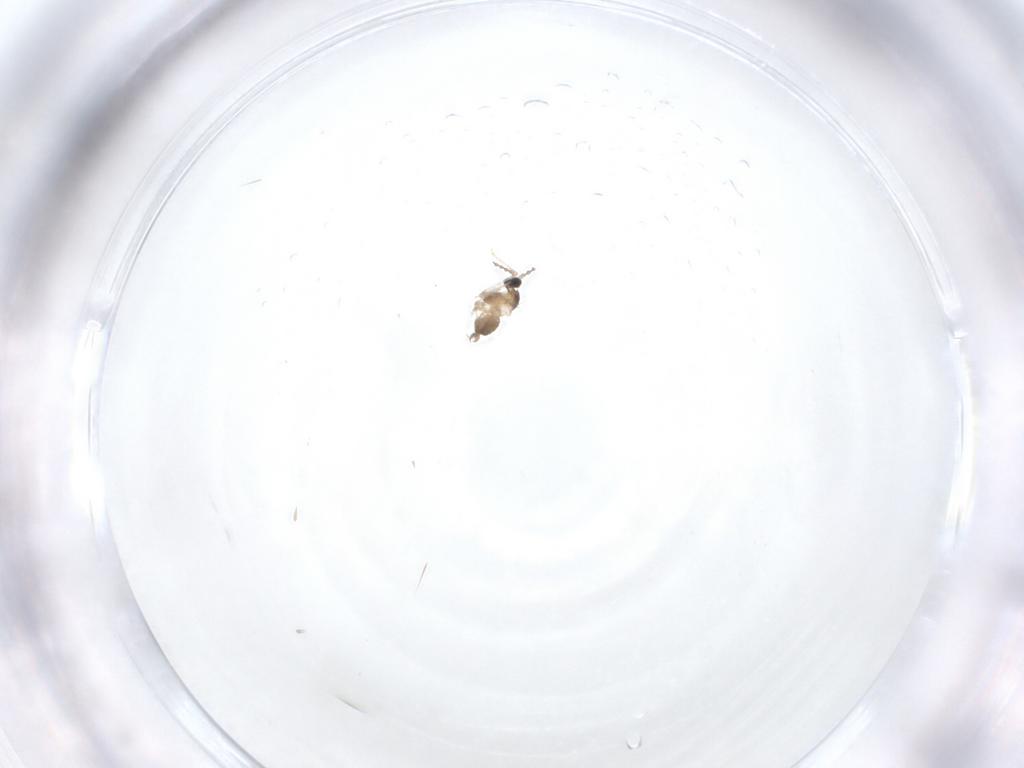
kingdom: Animalia
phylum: Arthropoda
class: Insecta
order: Diptera
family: Cecidomyiidae
